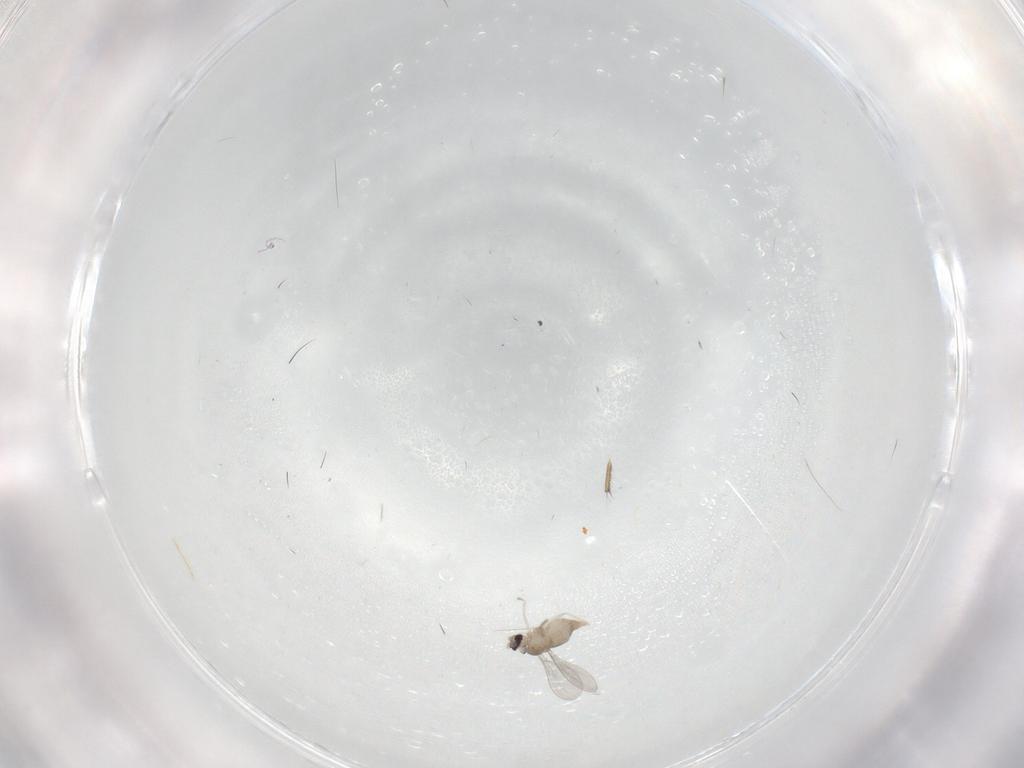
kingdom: Animalia
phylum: Arthropoda
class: Insecta
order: Diptera
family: Cecidomyiidae
